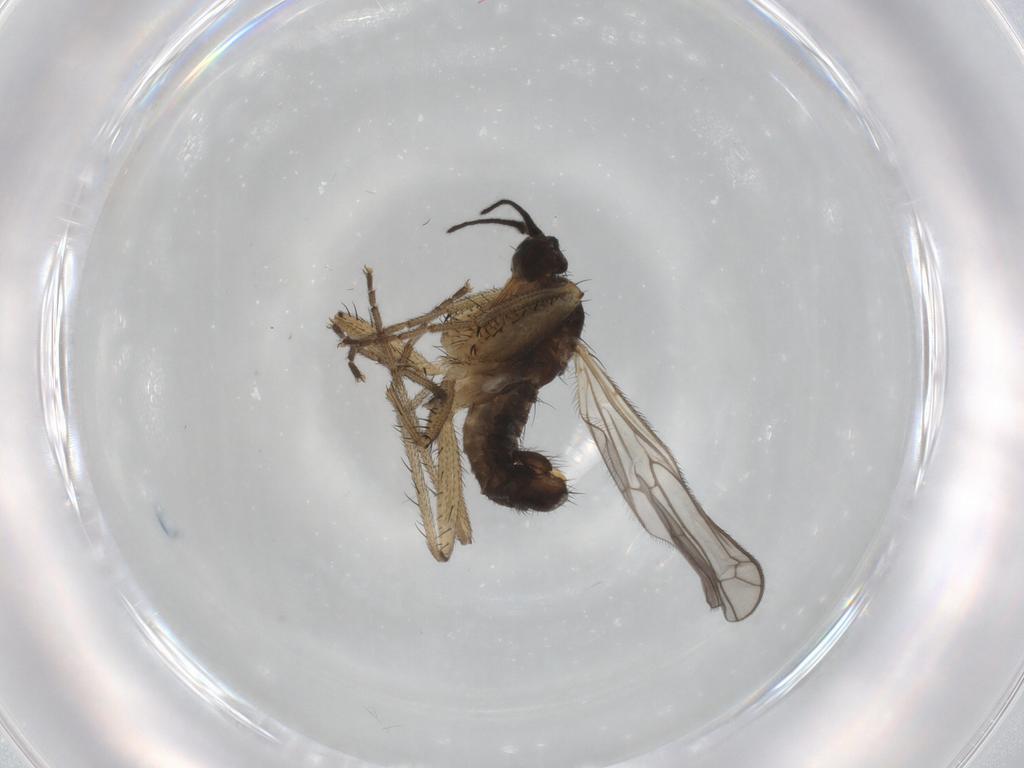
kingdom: Animalia
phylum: Arthropoda
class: Insecta
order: Diptera
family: Empididae
